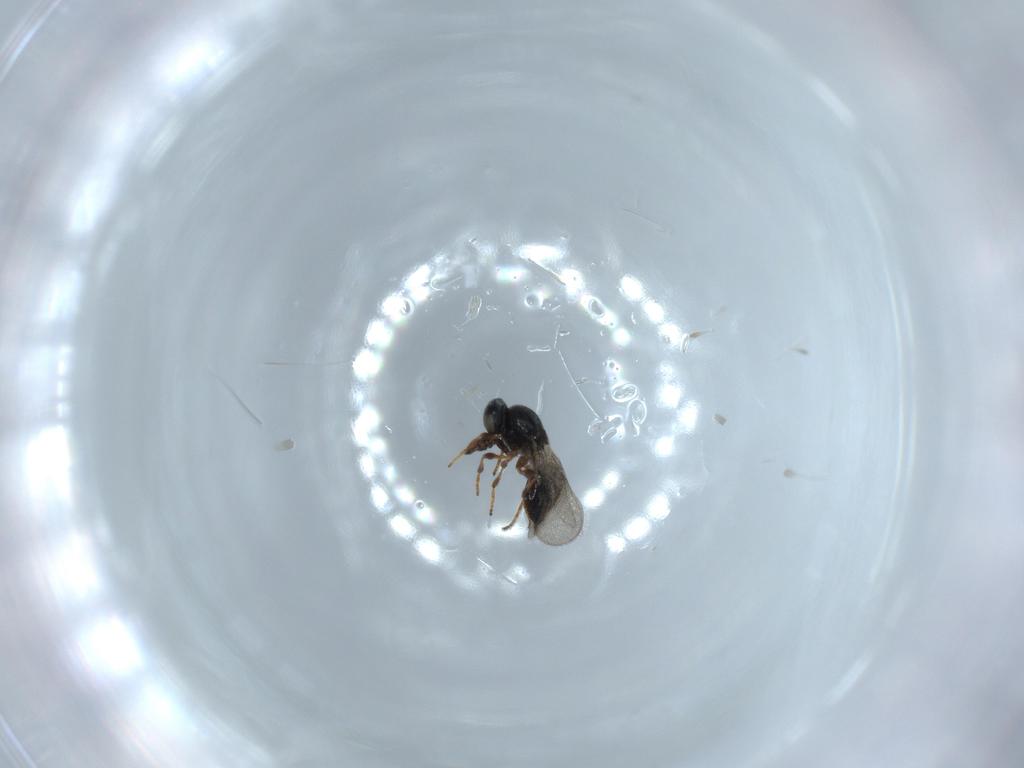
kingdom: Animalia
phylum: Arthropoda
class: Insecta
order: Hymenoptera
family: Platygastridae
